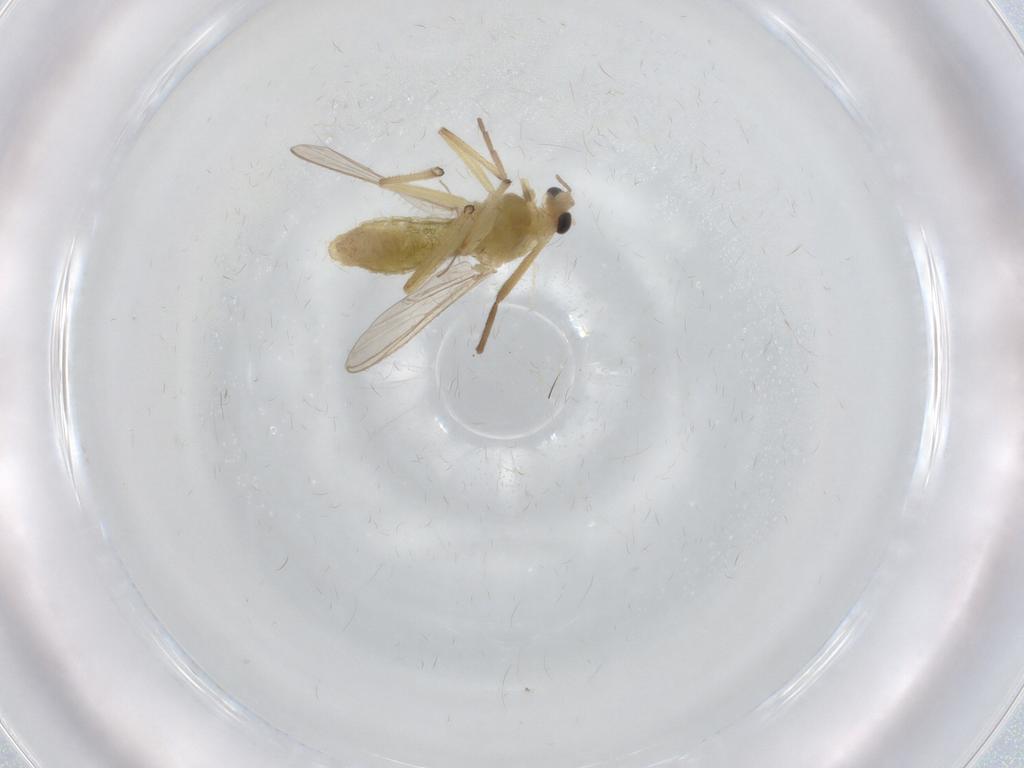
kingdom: Animalia
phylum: Arthropoda
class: Insecta
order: Diptera
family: Chironomidae
